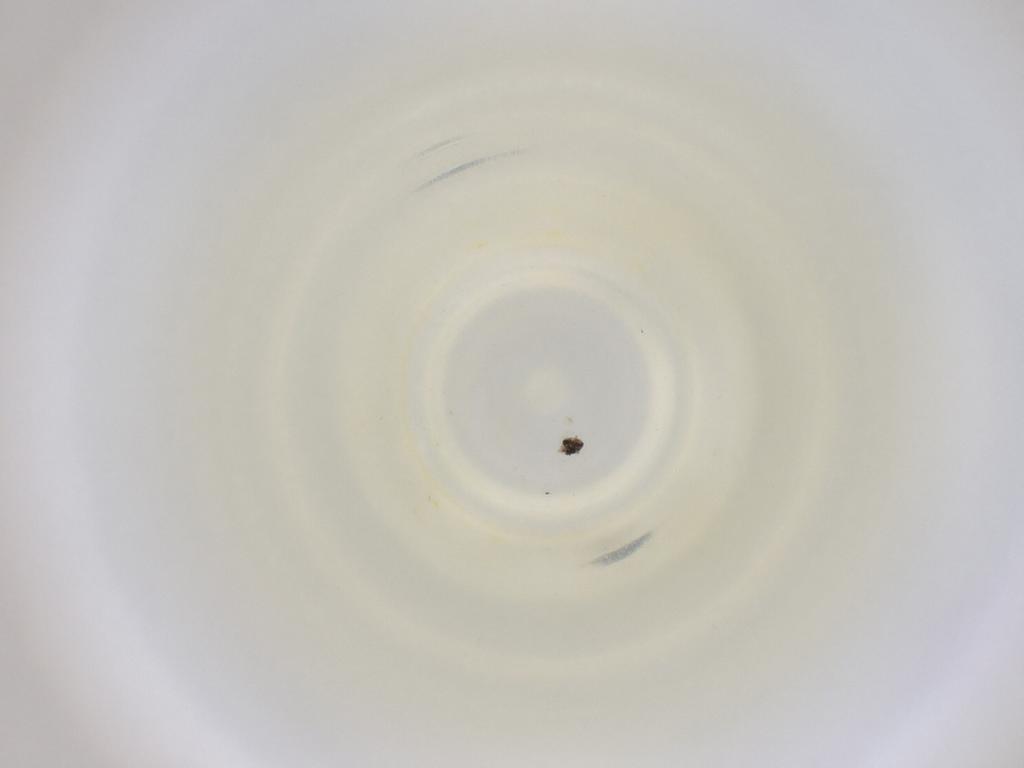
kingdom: Animalia
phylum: Arthropoda
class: Insecta
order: Diptera
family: Cecidomyiidae
